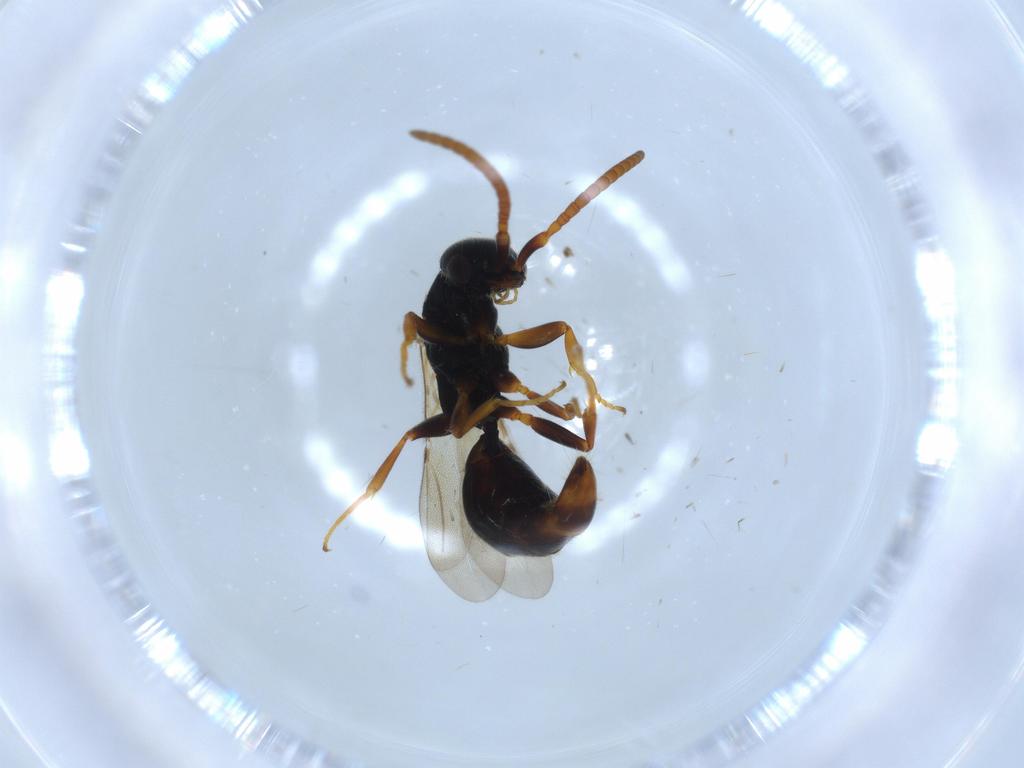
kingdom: Animalia
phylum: Arthropoda
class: Insecta
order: Hymenoptera
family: Bethylidae
